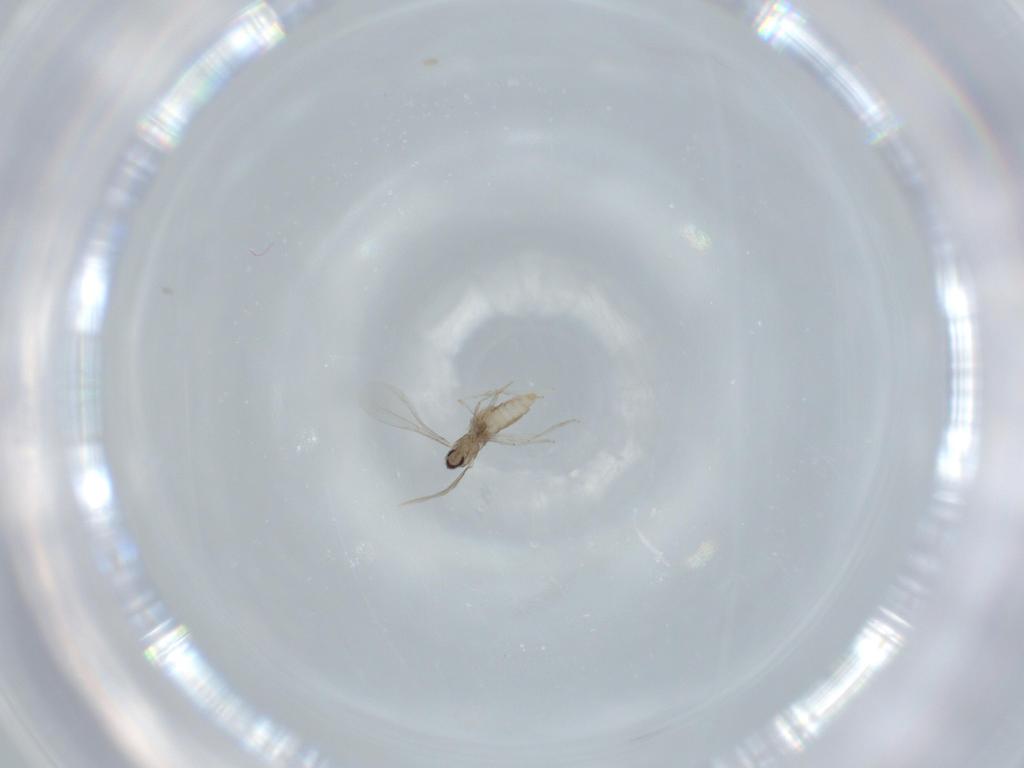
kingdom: Animalia
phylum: Arthropoda
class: Insecta
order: Diptera
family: Cecidomyiidae
